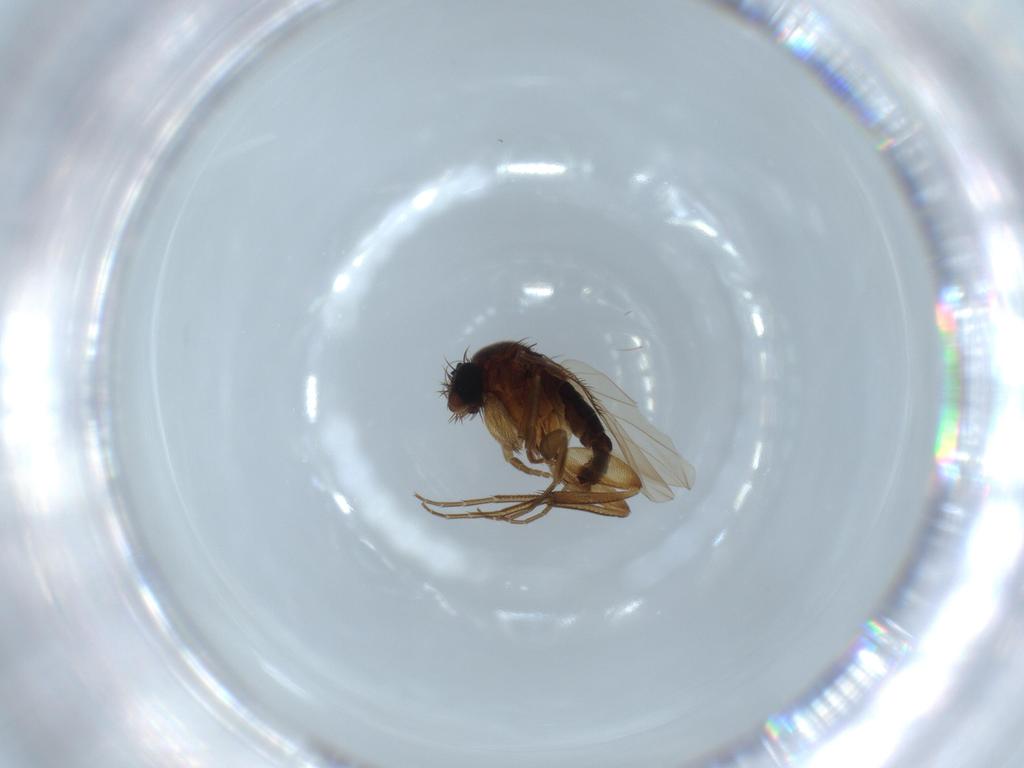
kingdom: Animalia
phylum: Arthropoda
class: Insecta
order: Diptera
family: Phoridae
